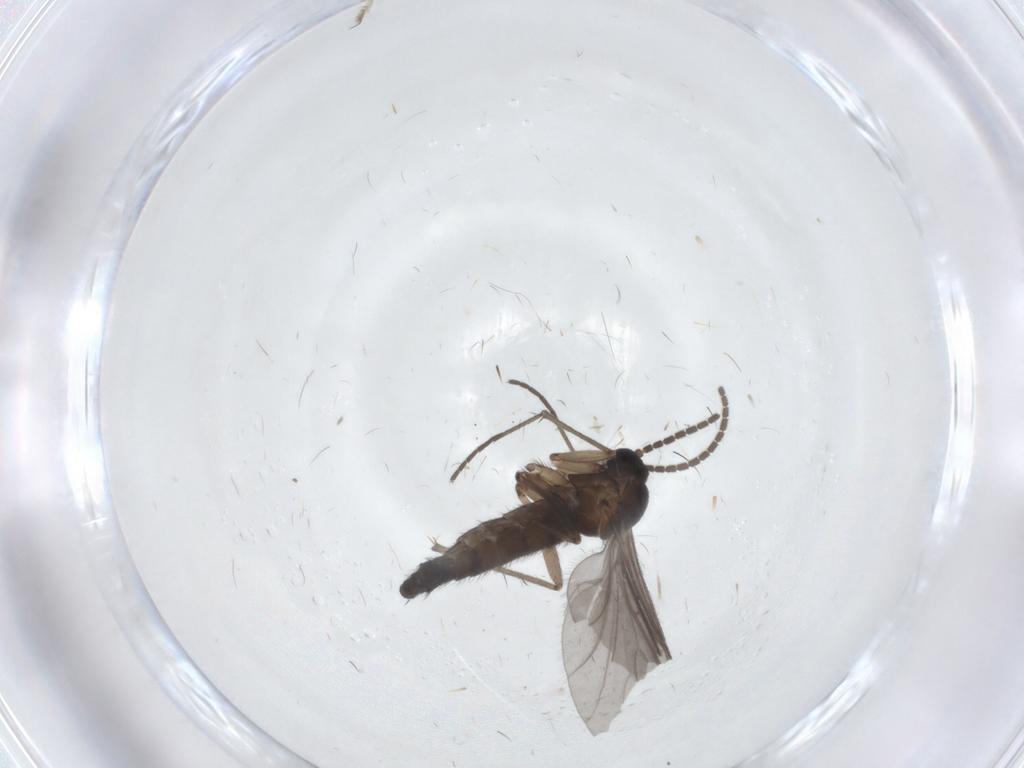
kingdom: Animalia
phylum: Arthropoda
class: Insecta
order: Diptera
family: Sciaridae
